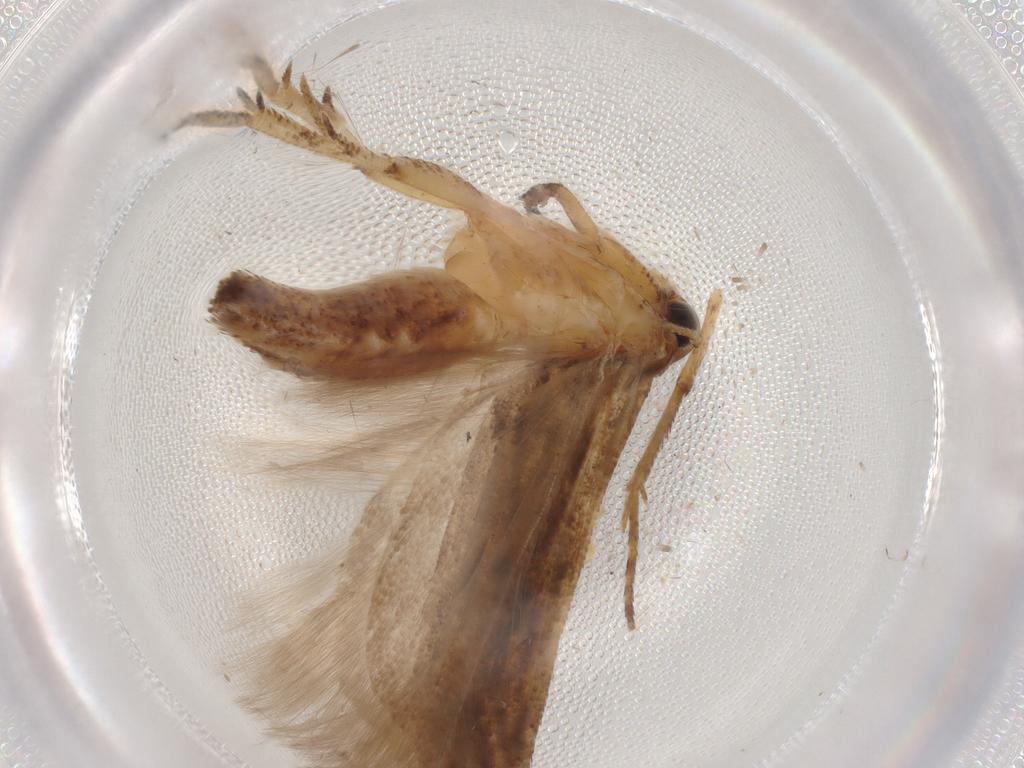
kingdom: Animalia
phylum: Arthropoda
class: Insecta
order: Lepidoptera
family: Gelechiidae
